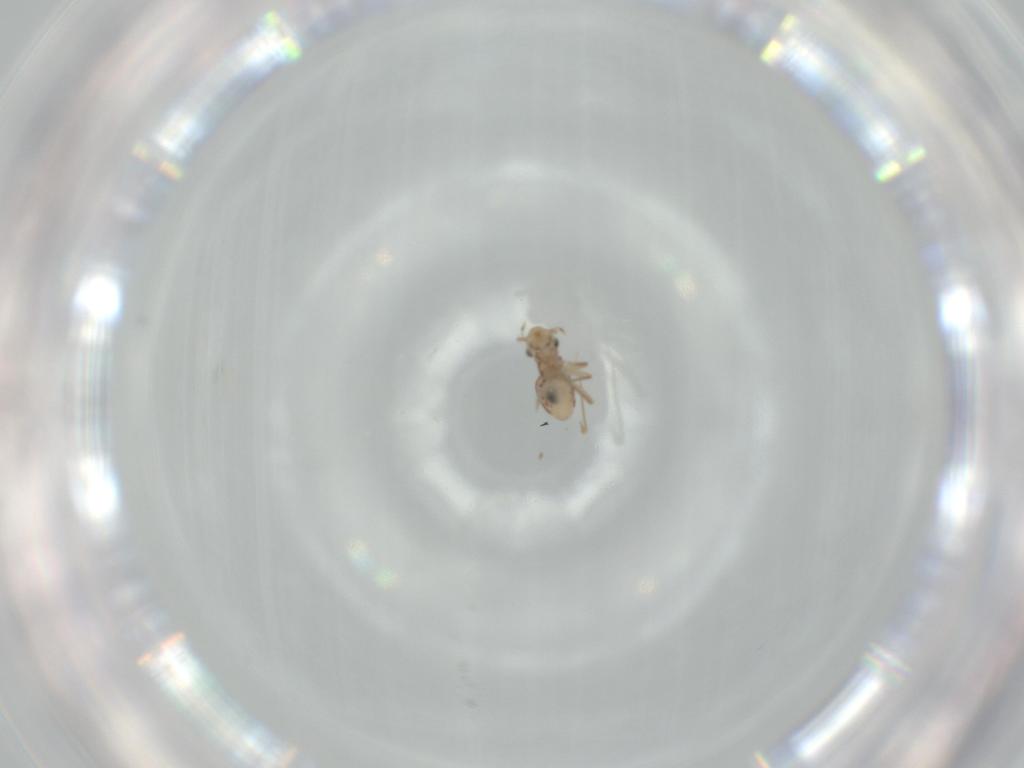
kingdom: Animalia
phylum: Arthropoda
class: Insecta
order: Psocodea
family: Lepidopsocidae
